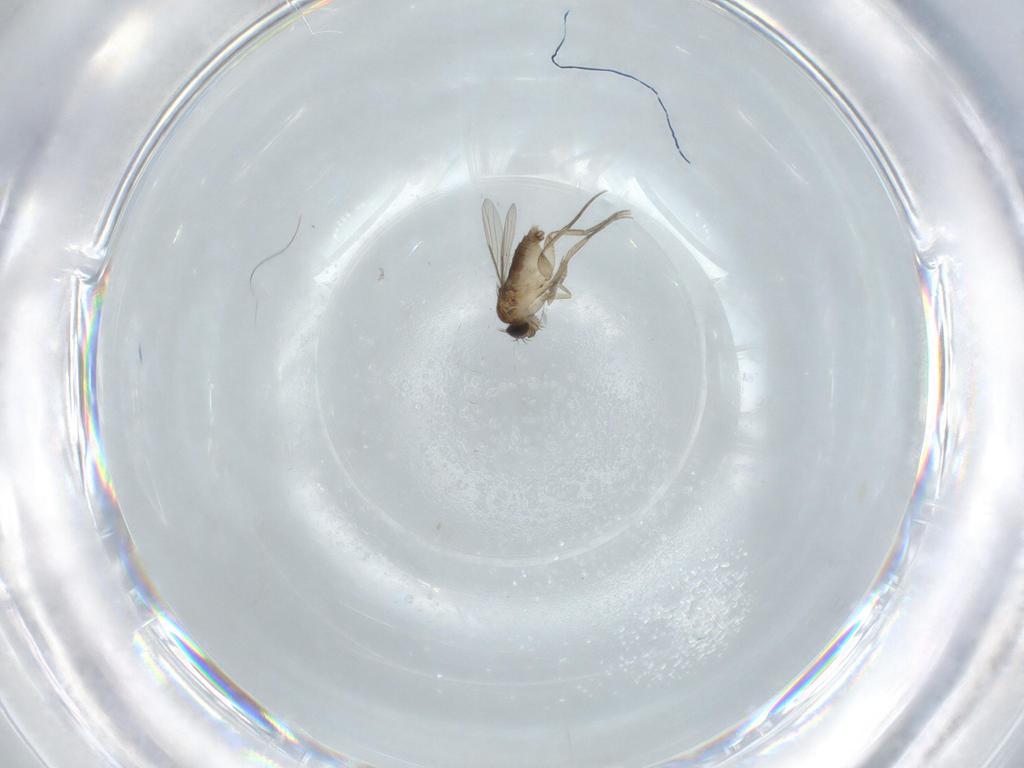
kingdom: Animalia
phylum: Arthropoda
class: Insecta
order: Diptera
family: Phoridae
